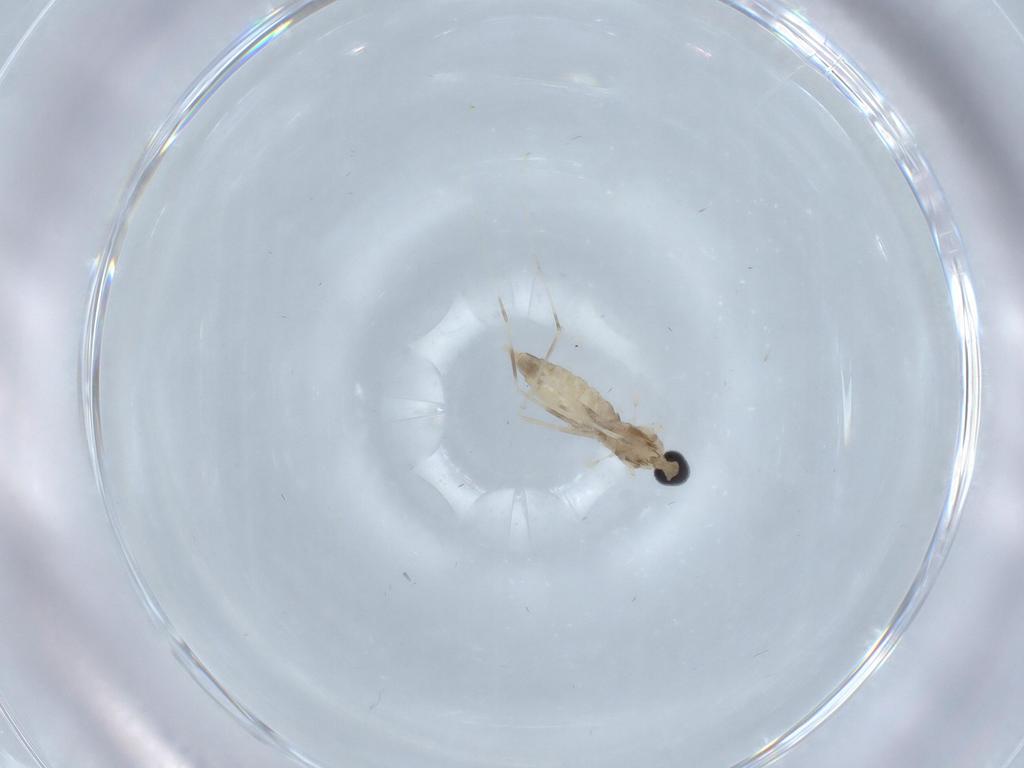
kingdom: Animalia
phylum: Arthropoda
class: Insecta
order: Diptera
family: Cecidomyiidae
